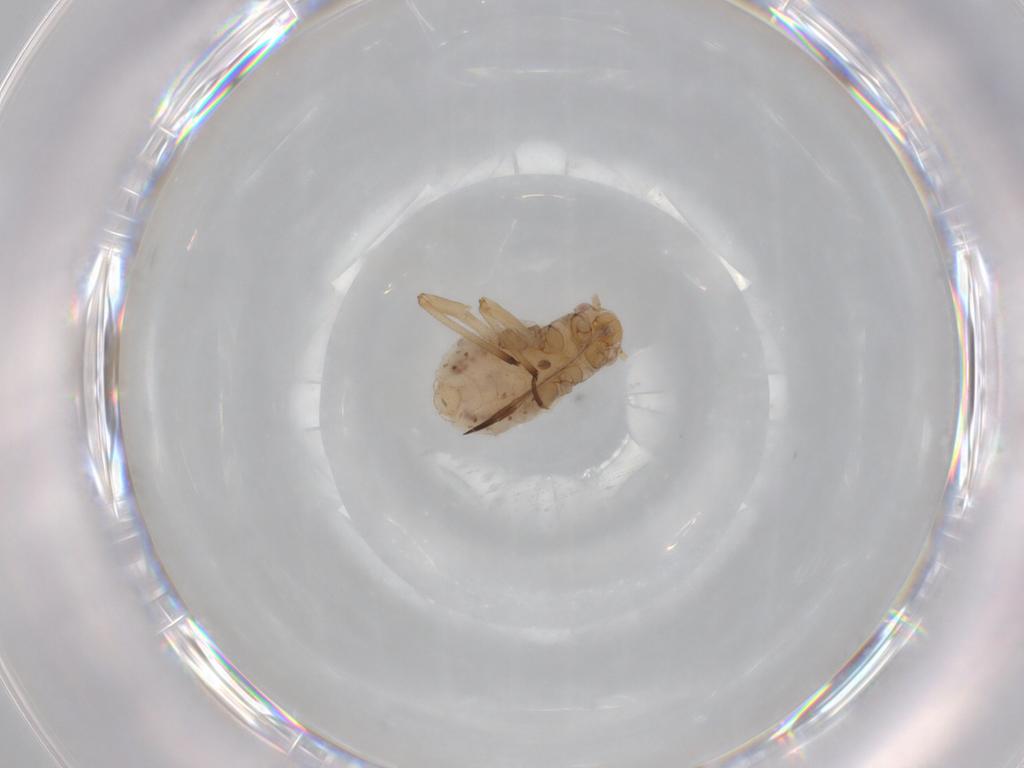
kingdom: Animalia
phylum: Arthropoda
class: Insecta
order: Hemiptera
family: Aphididae
